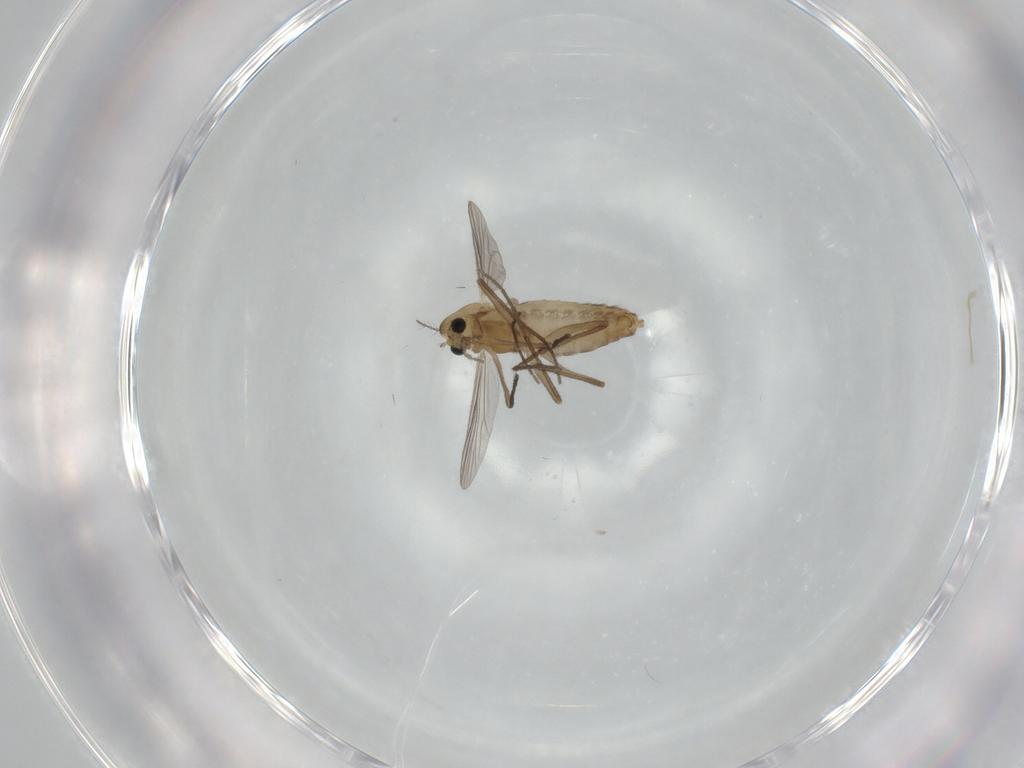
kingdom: Animalia
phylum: Arthropoda
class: Insecta
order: Diptera
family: Chironomidae
